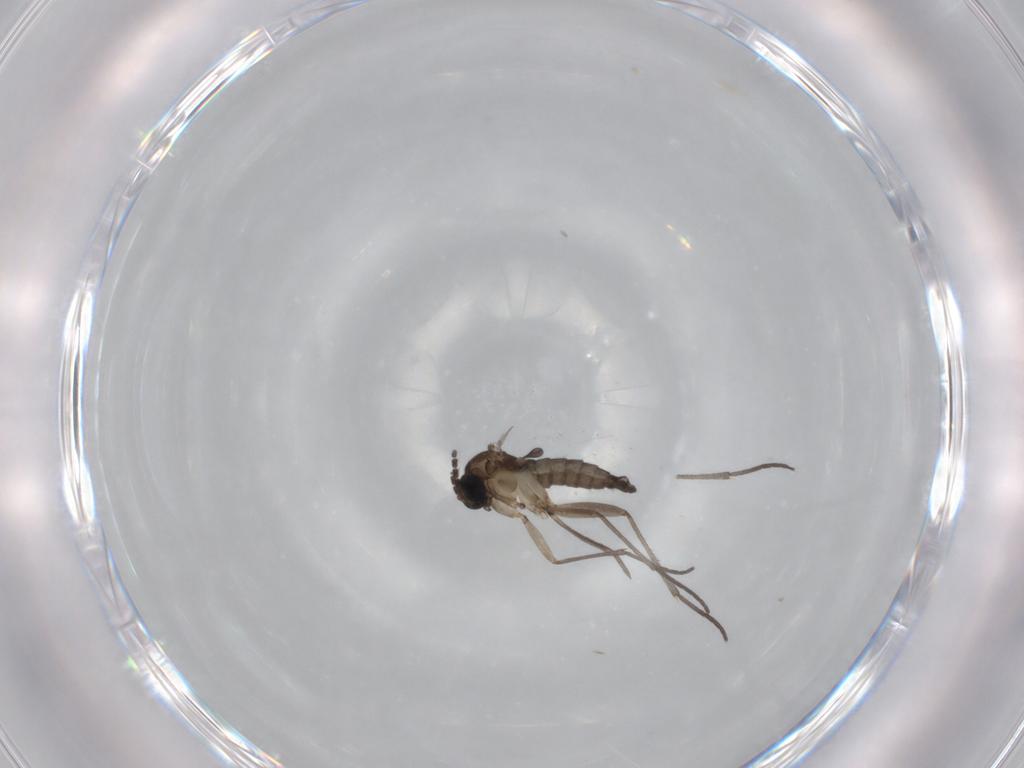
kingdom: Animalia
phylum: Arthropoda
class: Insecta
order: Diptera
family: Sciaridae
